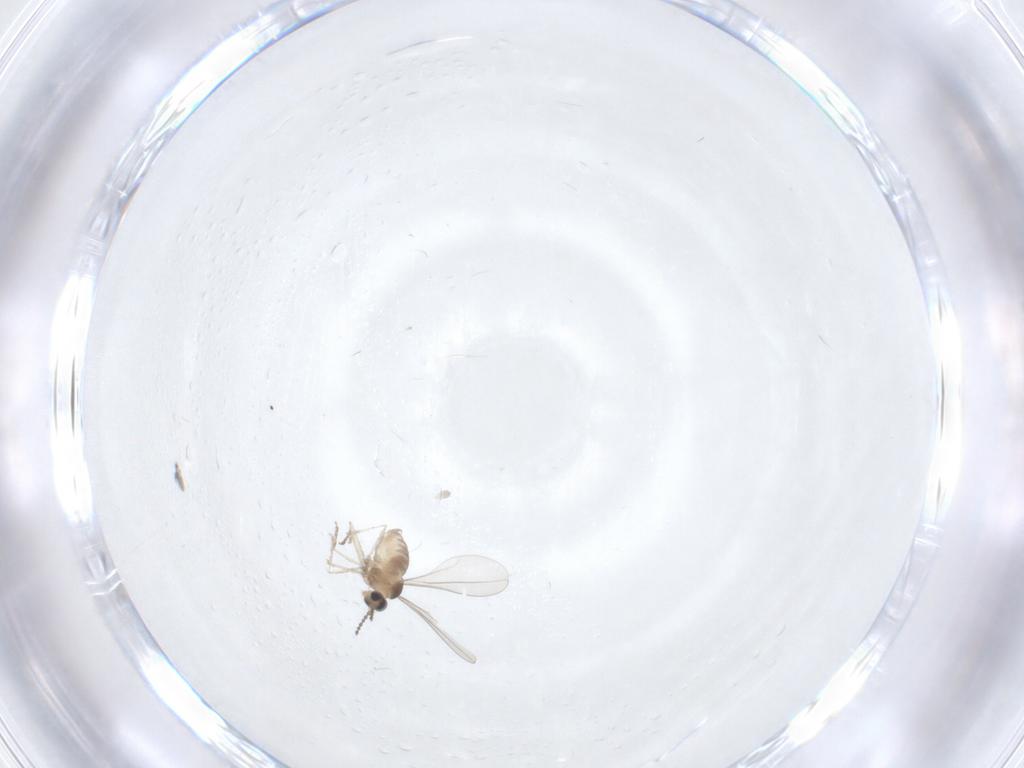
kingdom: Animalia
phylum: Arthropoda
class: Insecta
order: Diptera
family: Cecidomyiidae
